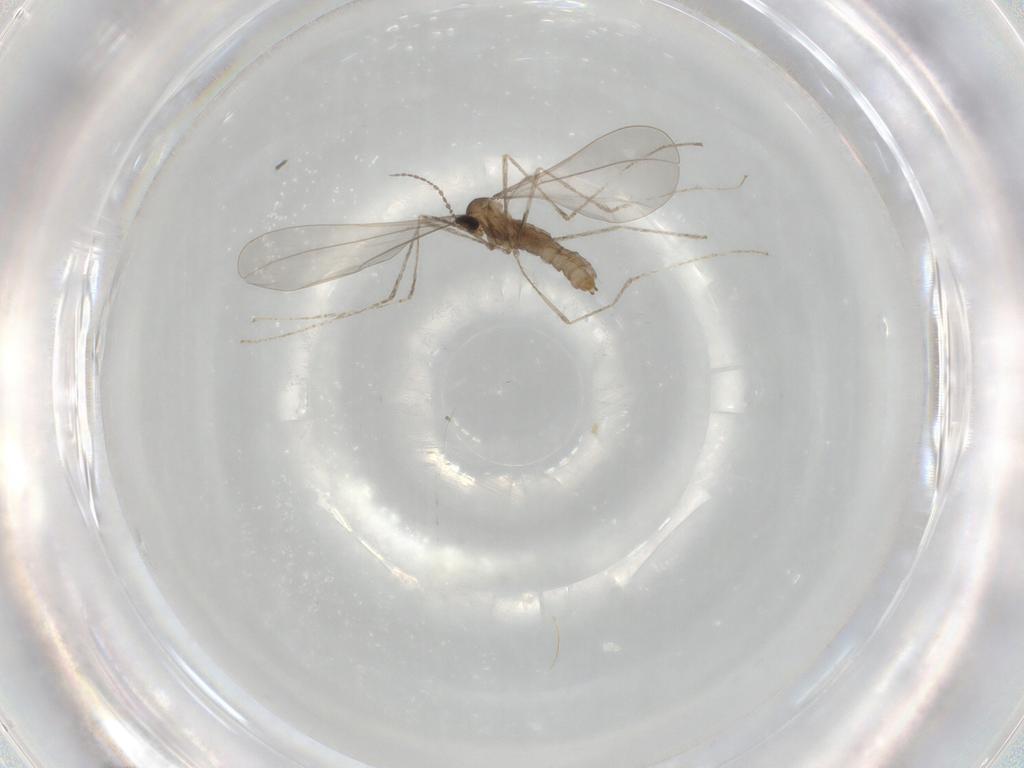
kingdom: Animalia
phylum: Arthropoda
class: Insecta
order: Diptera
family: Cecidomyiidae
